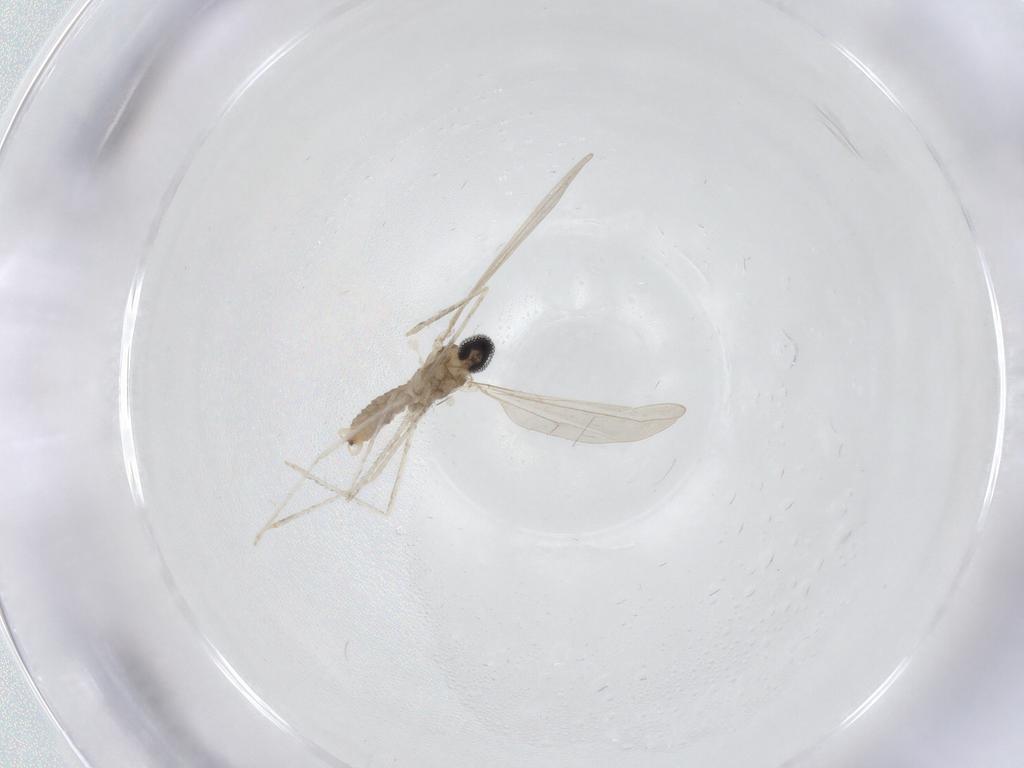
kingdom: Animalia
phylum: Arthropoda
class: Insecta
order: Diptera
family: Cecidomyiidae
